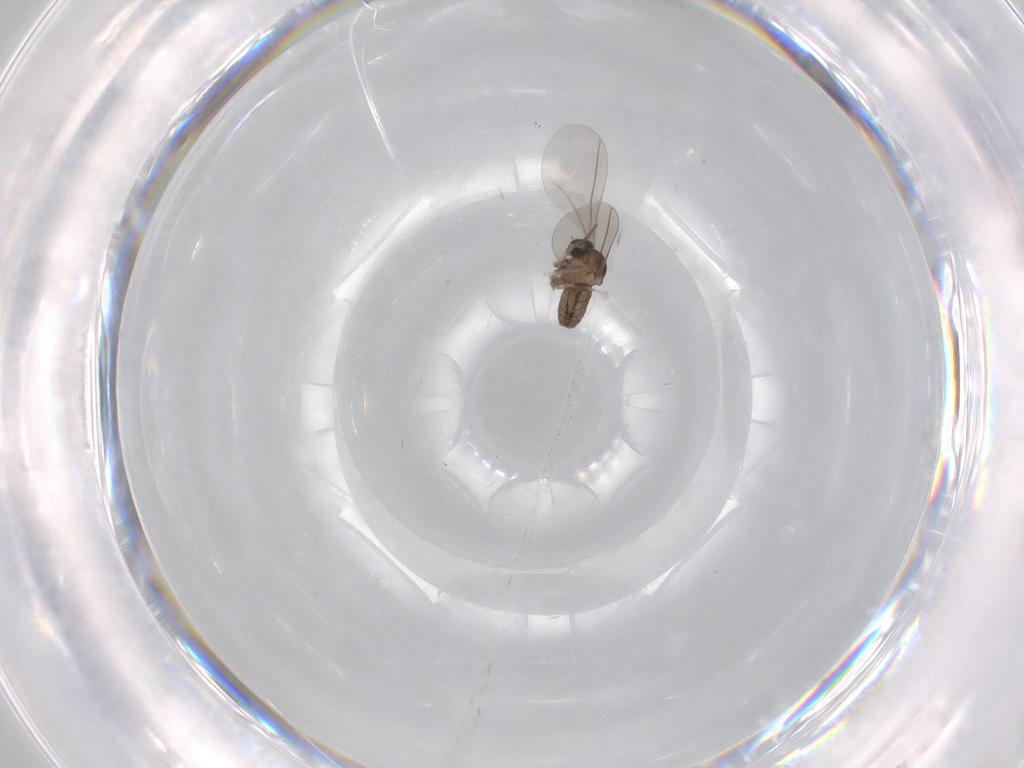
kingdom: Animalia
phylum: Arthropoda
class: Insecta
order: Diptera
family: Cecidomyiidae
